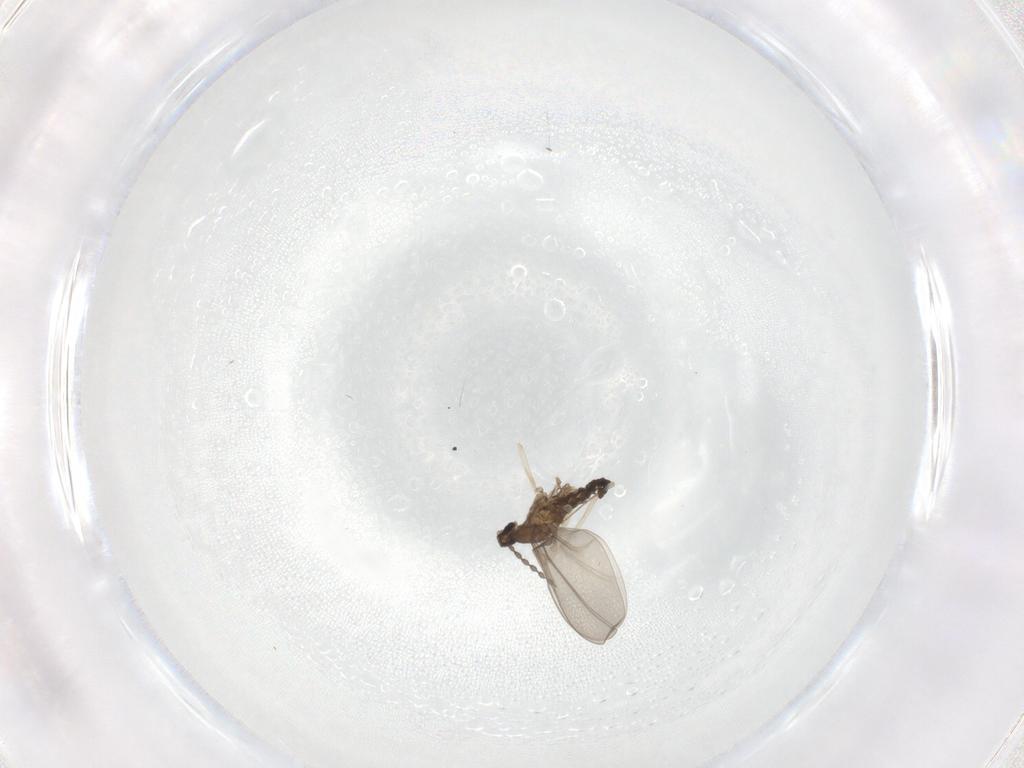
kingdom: Animalia
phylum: Arthropoda
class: Insecta
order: Diptera
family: Cecidomyiidae
